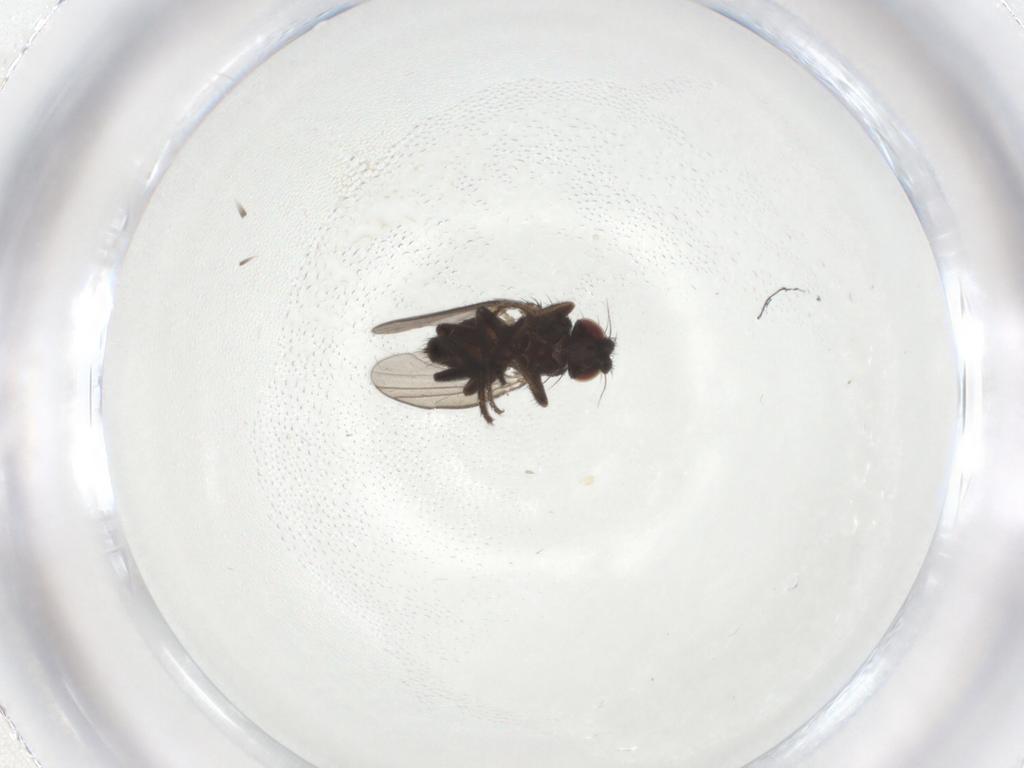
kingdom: Animalia
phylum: Arthropoda
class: Insecta
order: Diptera
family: Milichiidae
